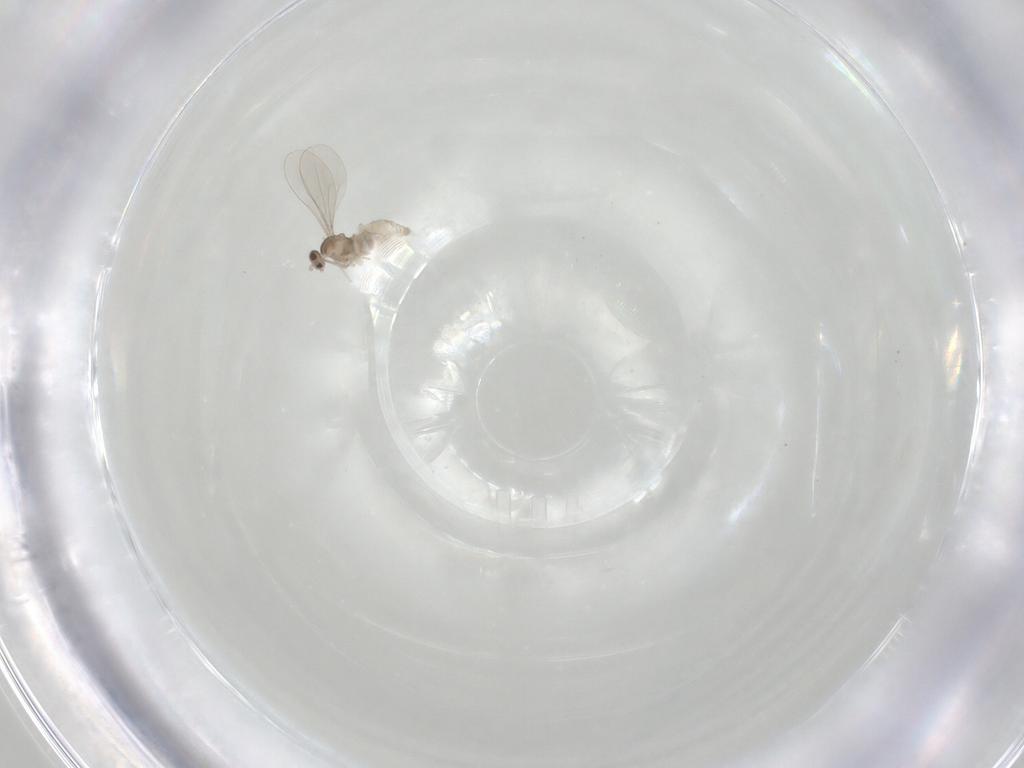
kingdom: Animalia
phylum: Arthropoda
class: Insecta
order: Diptera
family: Cecidomyiidae
